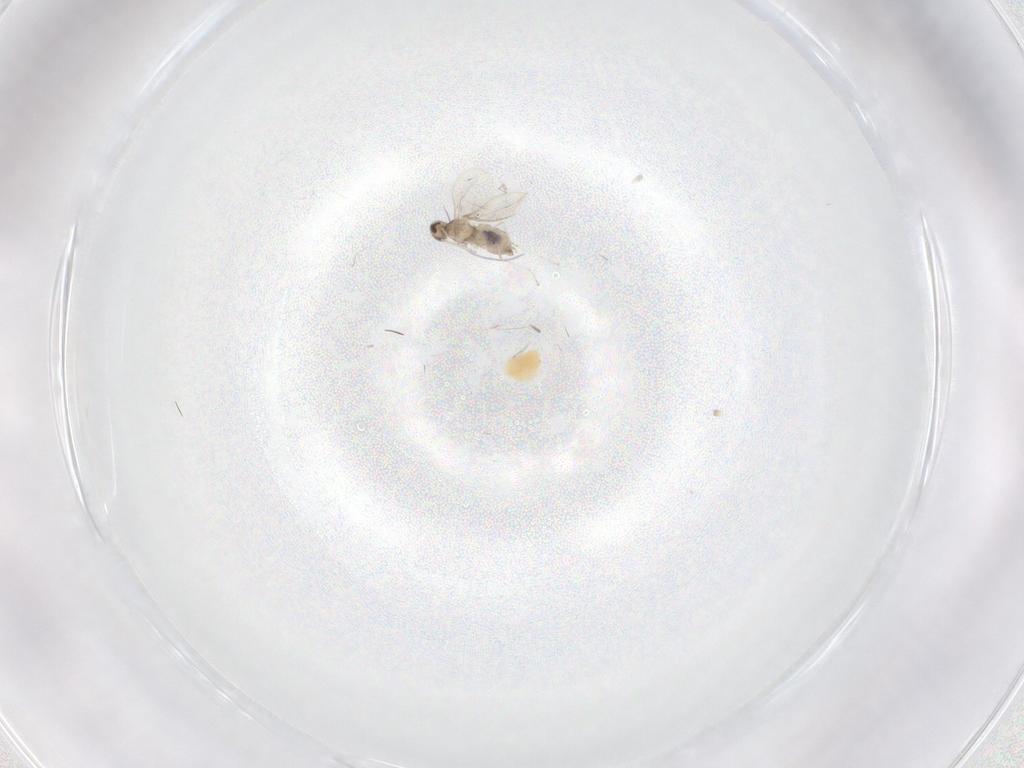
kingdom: Animalia
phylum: Arthropoda
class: Insecta
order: Diptera
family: Cecidomyiidae
